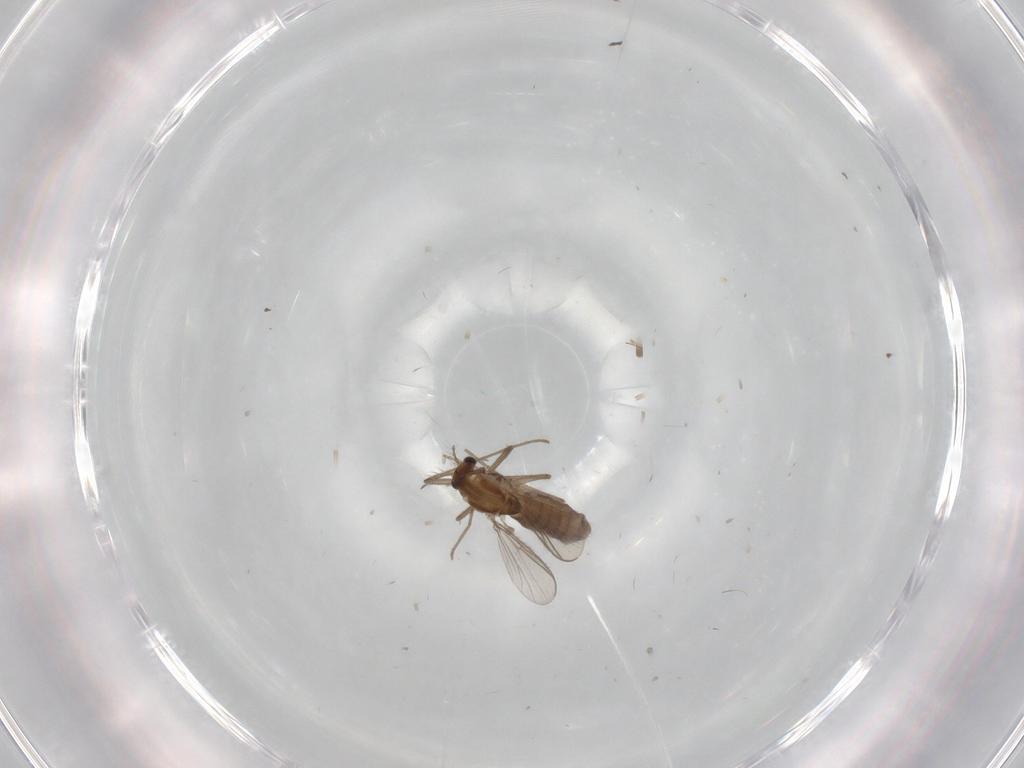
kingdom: Animalia
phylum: Arthropoda
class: Insecta
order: Diptera
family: Chironomidae
